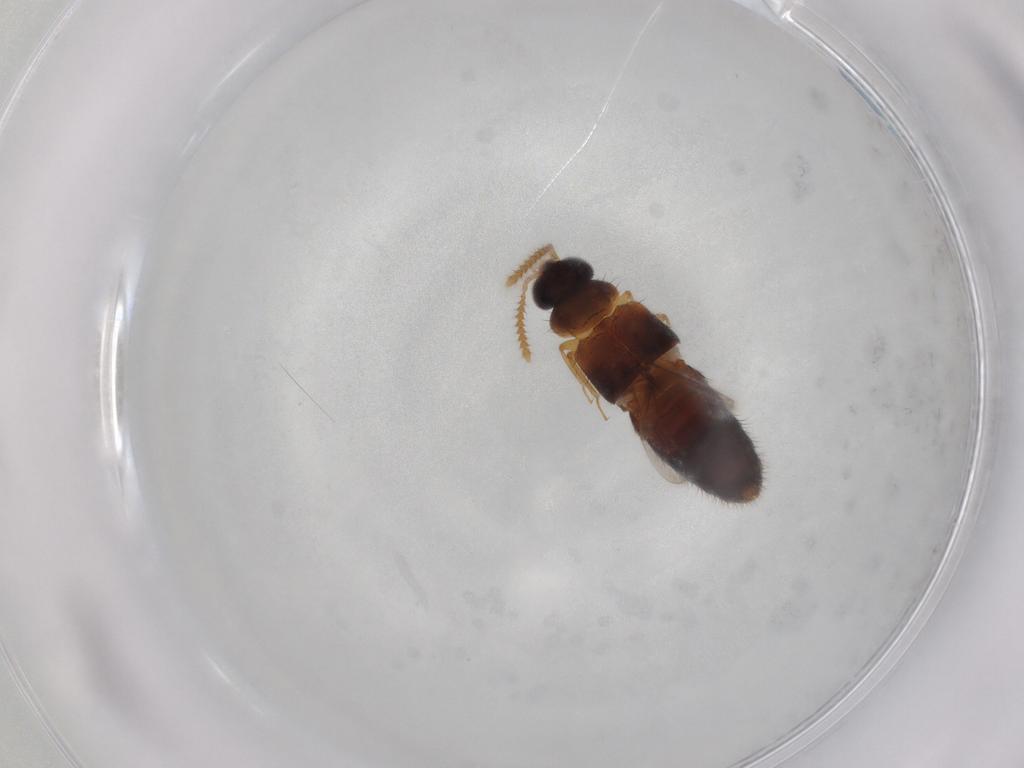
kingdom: Animalia
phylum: Arthropoda
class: Insecta
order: Coleoptera
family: Staphylinidae
